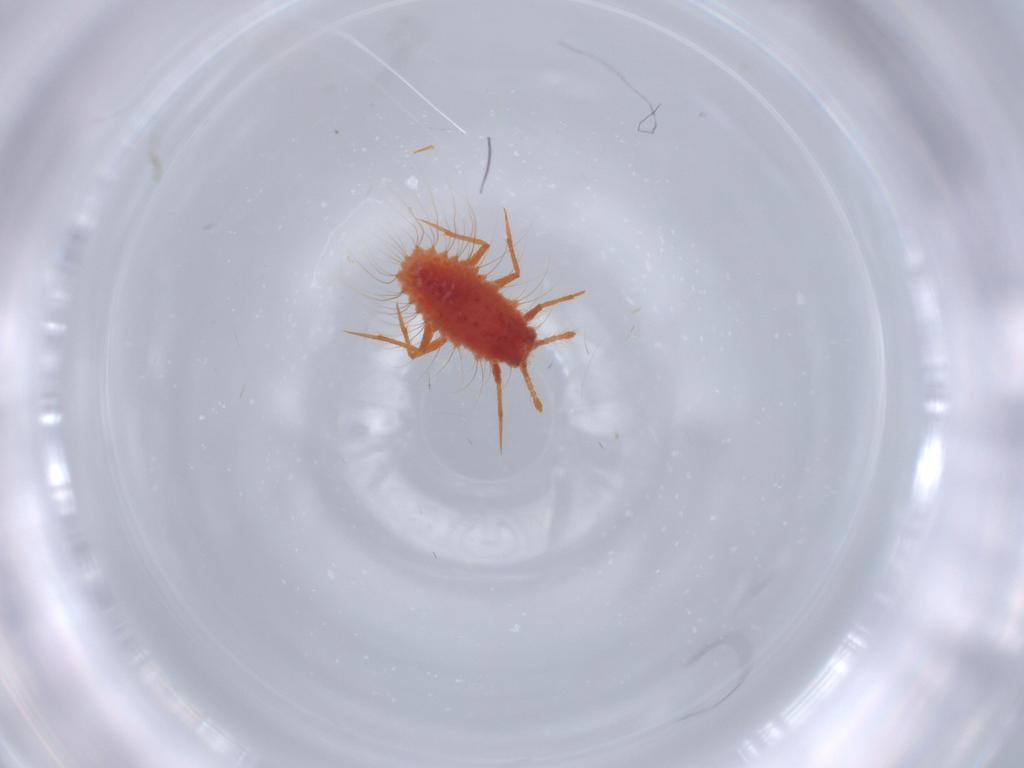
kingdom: Animalia
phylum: Arthropoda
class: Insecta
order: Hemiptera
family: Monophlebidae
